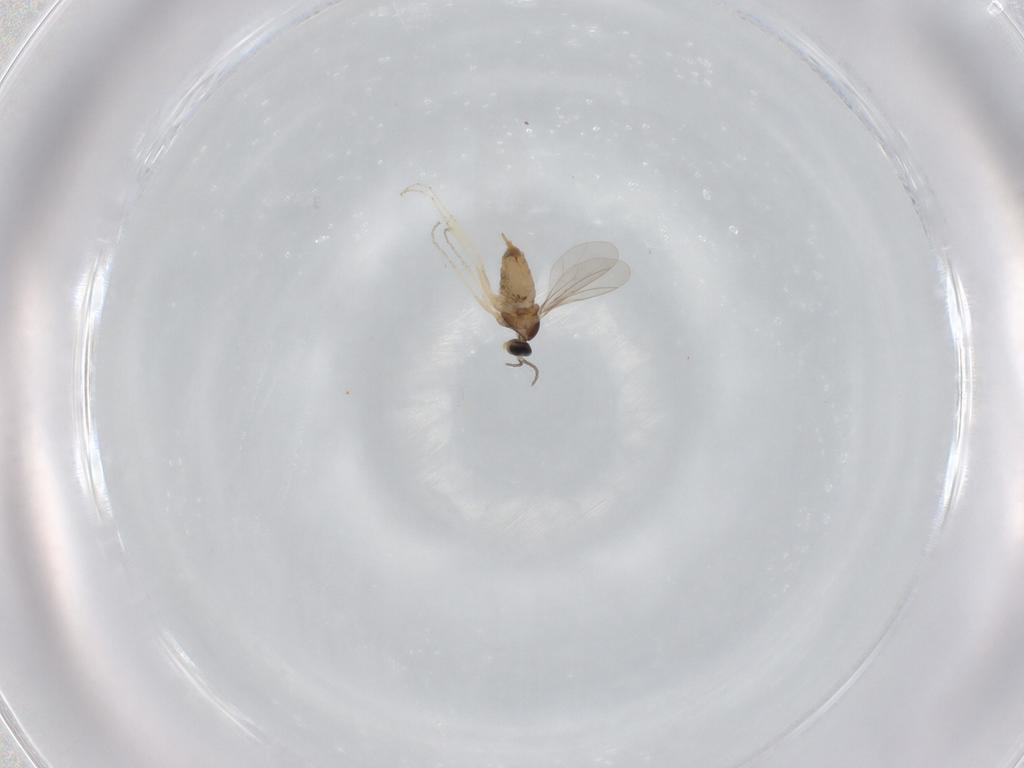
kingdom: Animalia
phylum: Arthropoda
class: Insecta
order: Diptera
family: Cecidomyiidae
